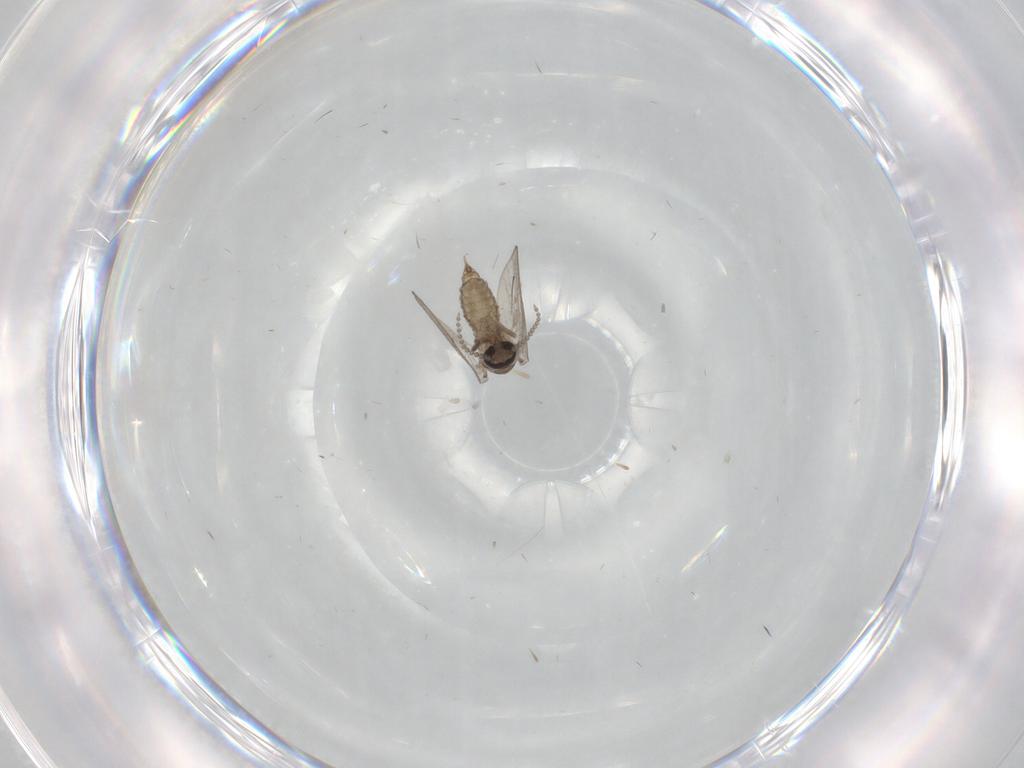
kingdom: Animalia
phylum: Arthropoda
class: Insecta
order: Diptera
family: Psychodidae
